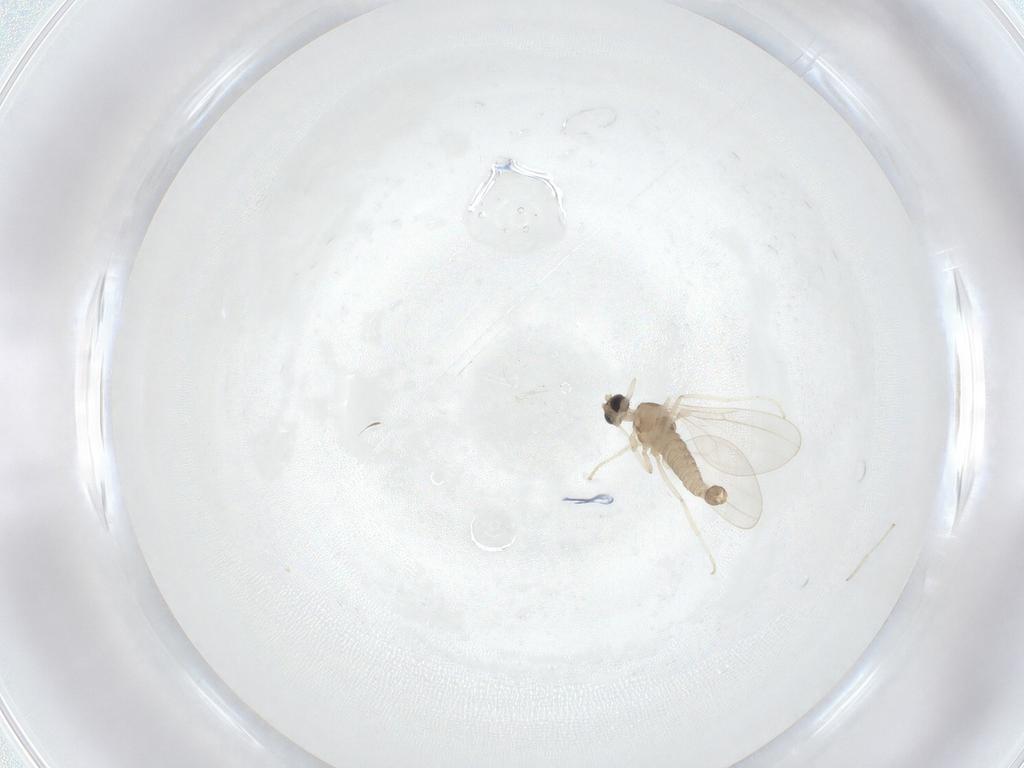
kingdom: Animalia
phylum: Arthropoda
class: Insecta
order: Diptera
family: Cecidomyiidae
